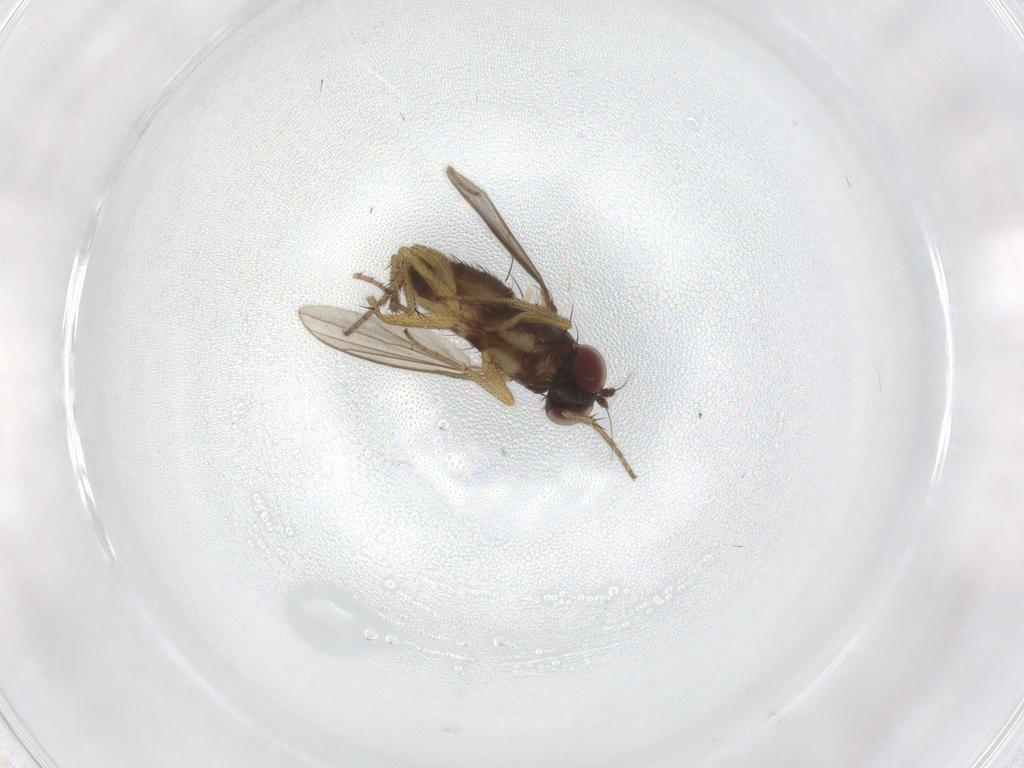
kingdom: Animalia
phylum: Arthropoda
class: Insecta
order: Diptera
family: Dolichopodidae
